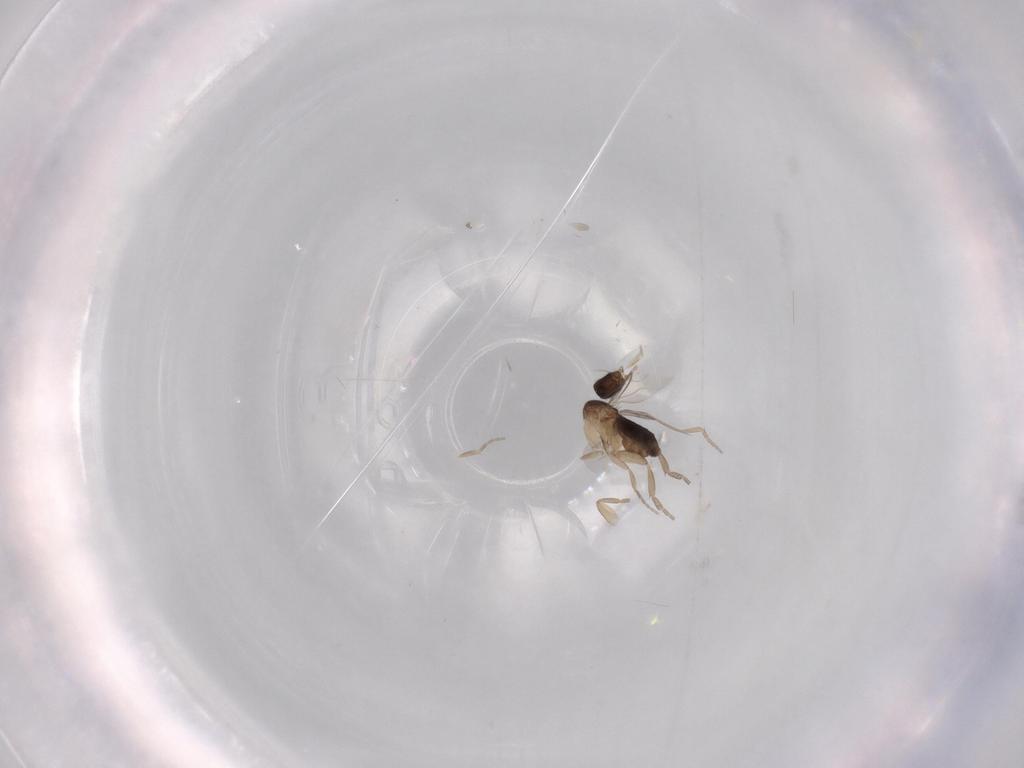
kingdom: Animalia
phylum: Arthropoda
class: Insecta
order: Diptera
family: Phoridae
